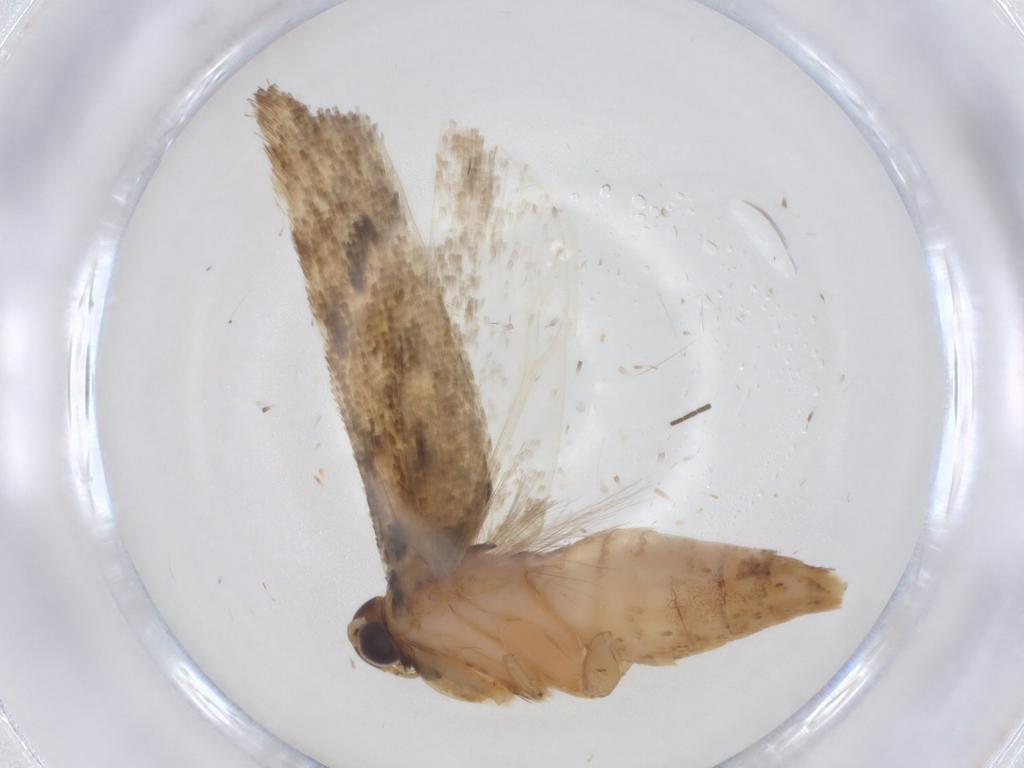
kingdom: Animalia
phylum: Arthropoda
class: Insecta
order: Lepidoptera
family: Gelechiidae
